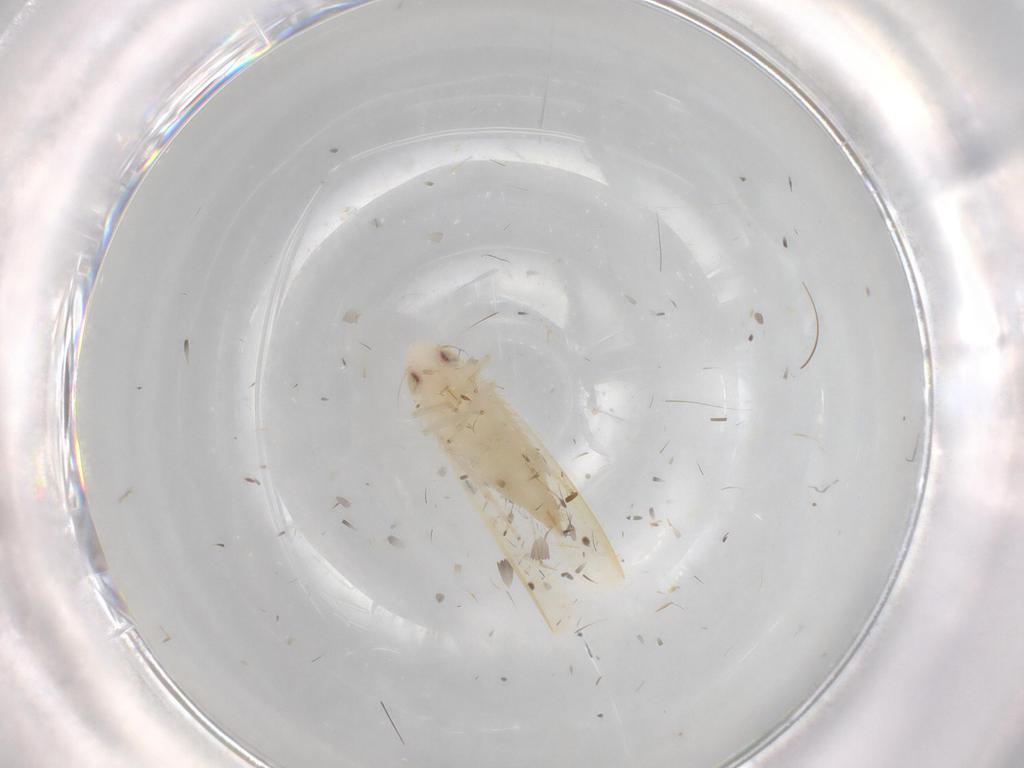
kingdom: Animalia
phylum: Arthropoda
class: Insecta
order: Hemiptera
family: Cicadellidae
